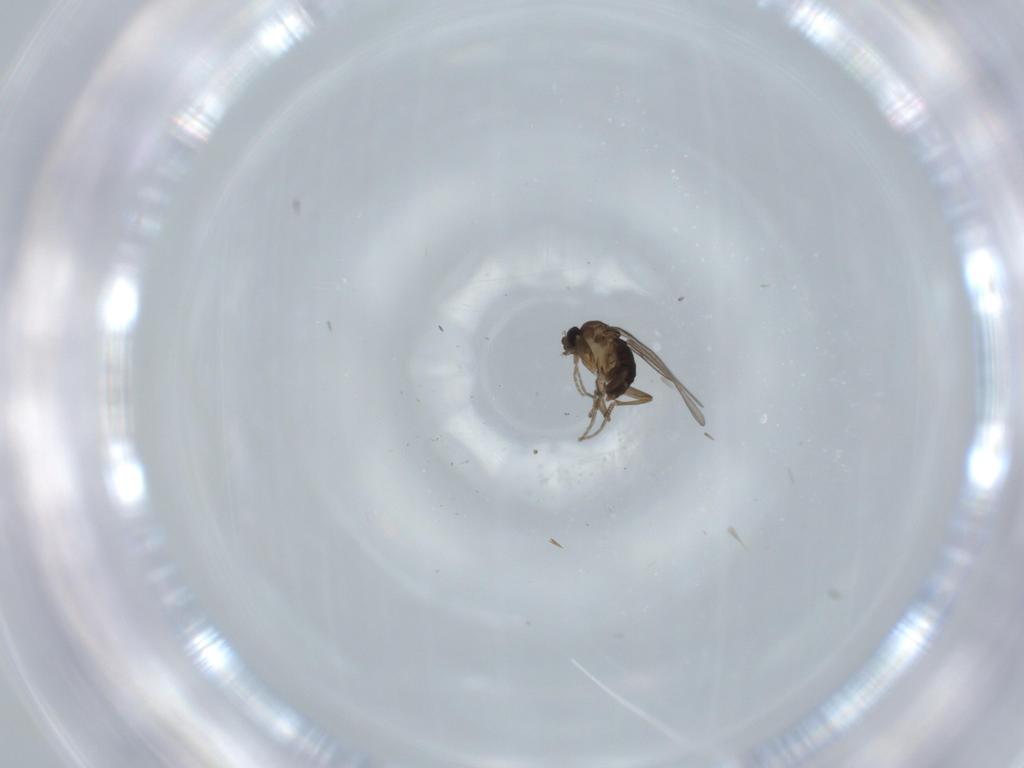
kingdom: Animalia
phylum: Arthropoda
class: Insecta
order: Diptera
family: Phoridae
